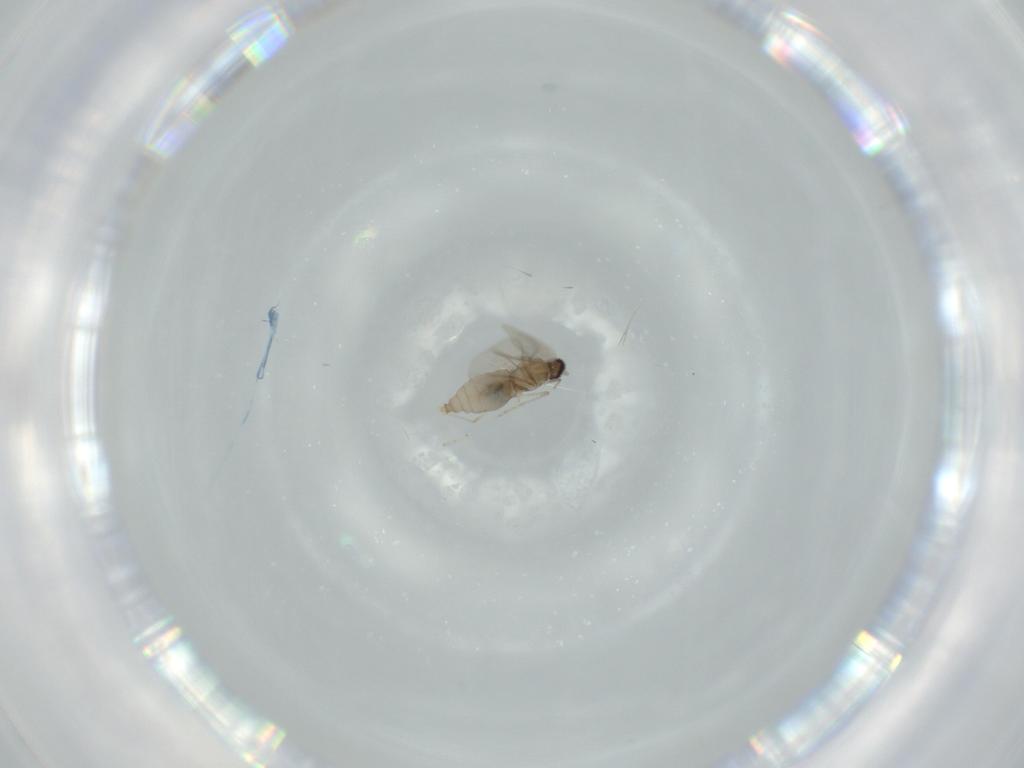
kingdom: Animalia
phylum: Arthropoda
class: Insecta
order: Diptera
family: Cecidomyiidae
